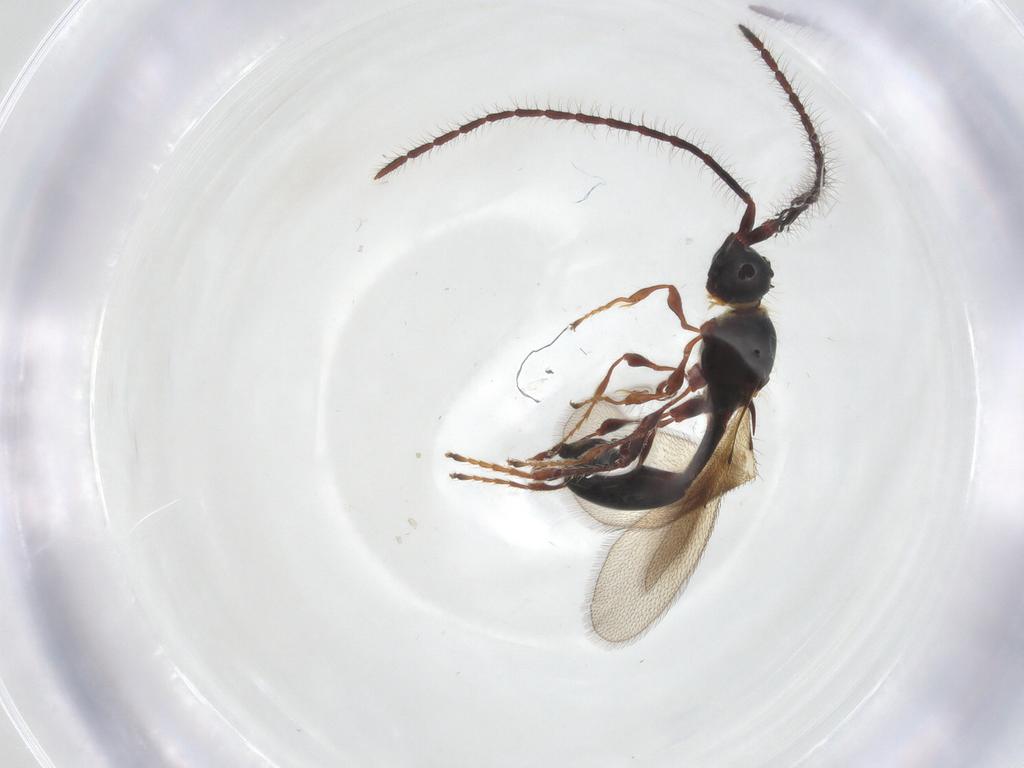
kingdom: Animalia
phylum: Arthropoda
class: Insecta
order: Hymenoptera
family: Diapriidae
